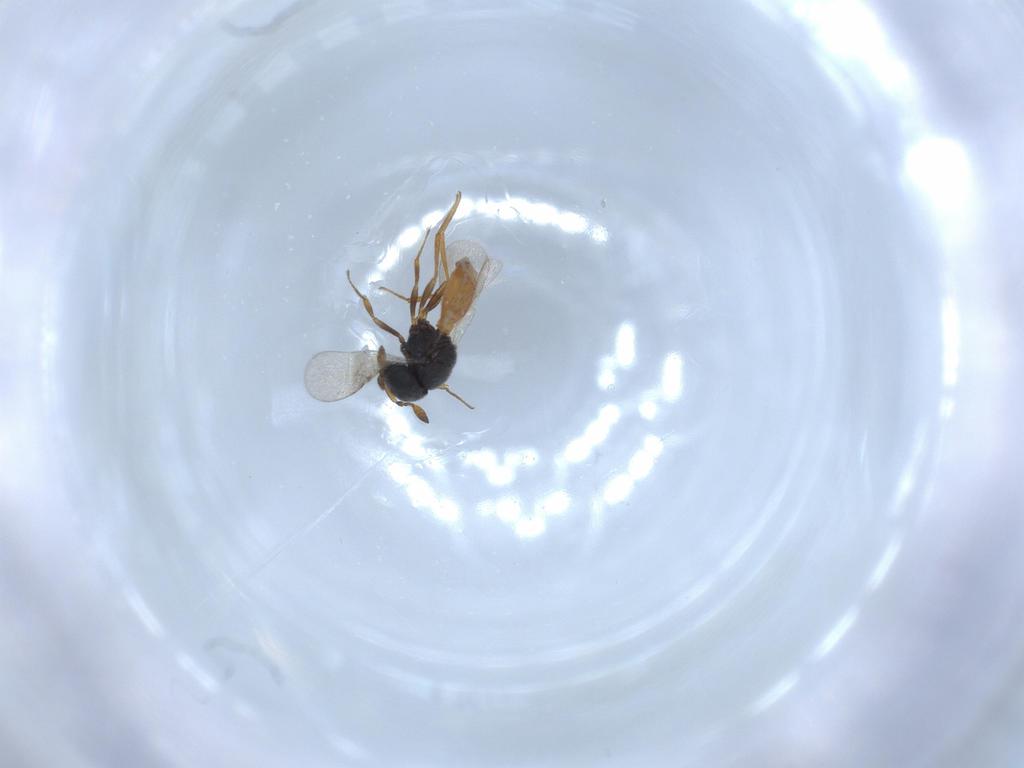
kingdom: Animalia
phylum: Arthropoda
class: Insecta
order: Hymenoptera
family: Scelionidae
